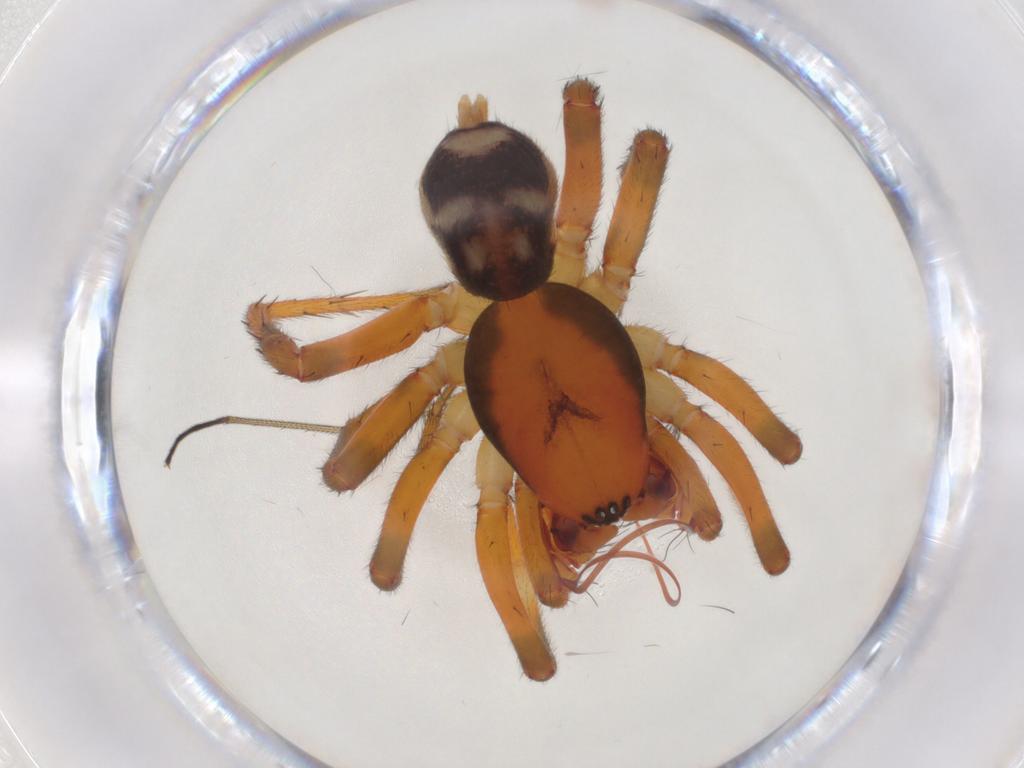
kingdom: Animalia
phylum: Arthropoda
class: Arachnida
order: Araneae
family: Zodariidae
